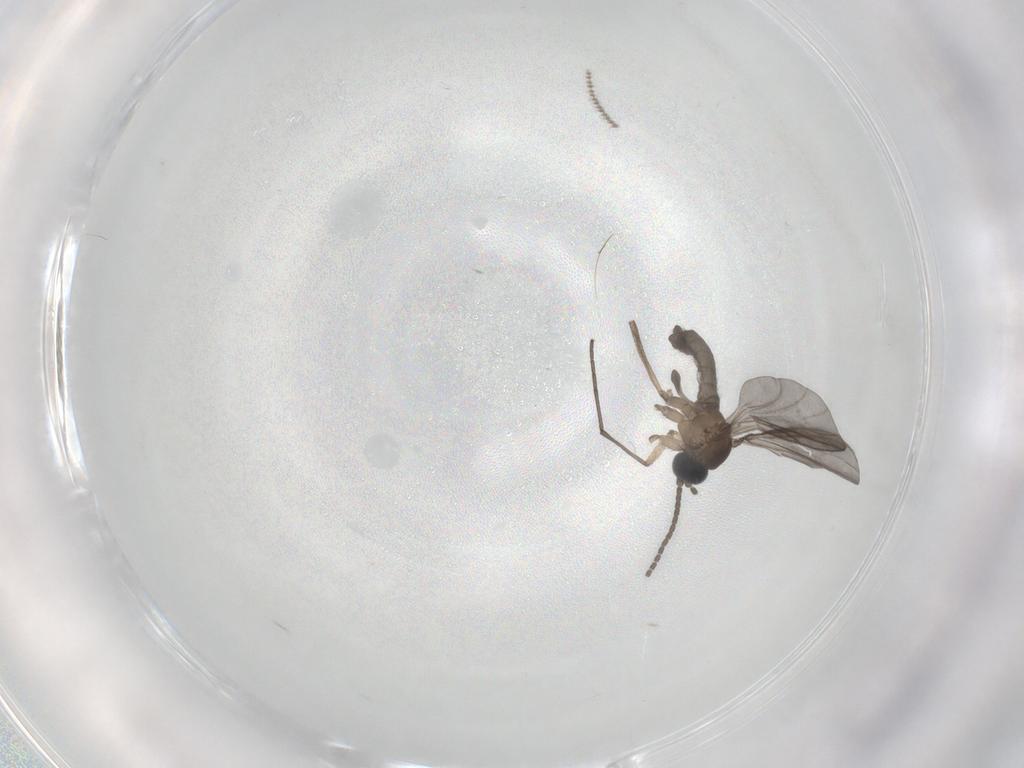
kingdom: Animalia
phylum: Arthropoda
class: Insecta
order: Diptera
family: Sciaridae
